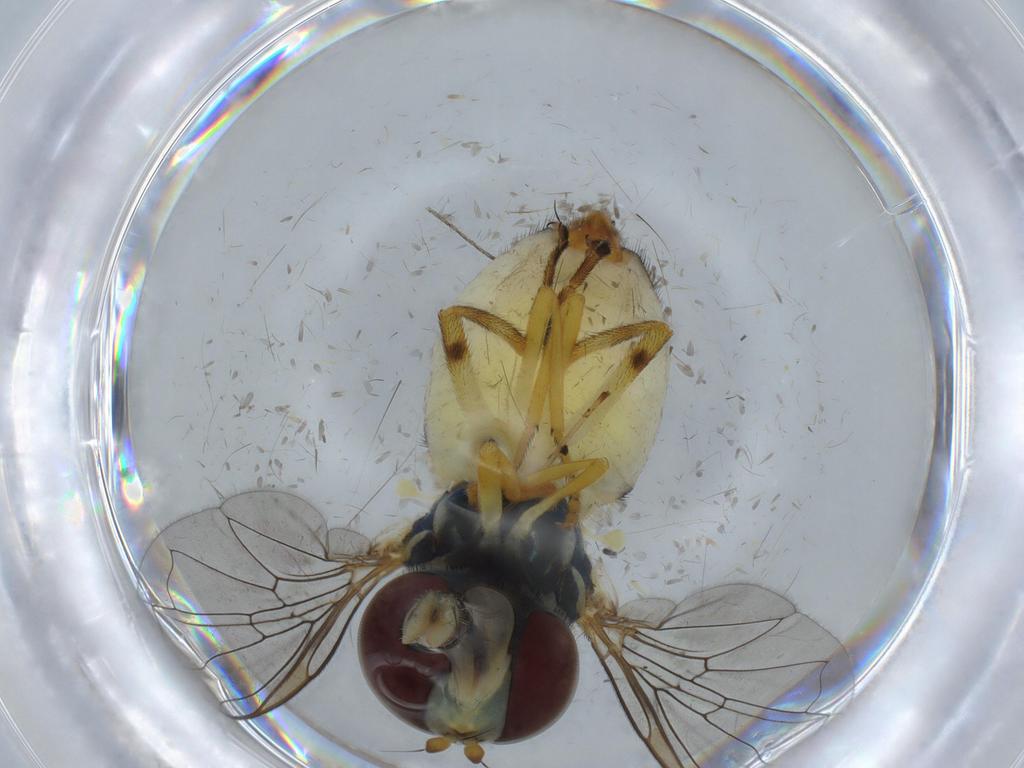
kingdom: Animalia
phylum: Arthropoda
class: Insecta
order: Diptera
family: Syrphidae
